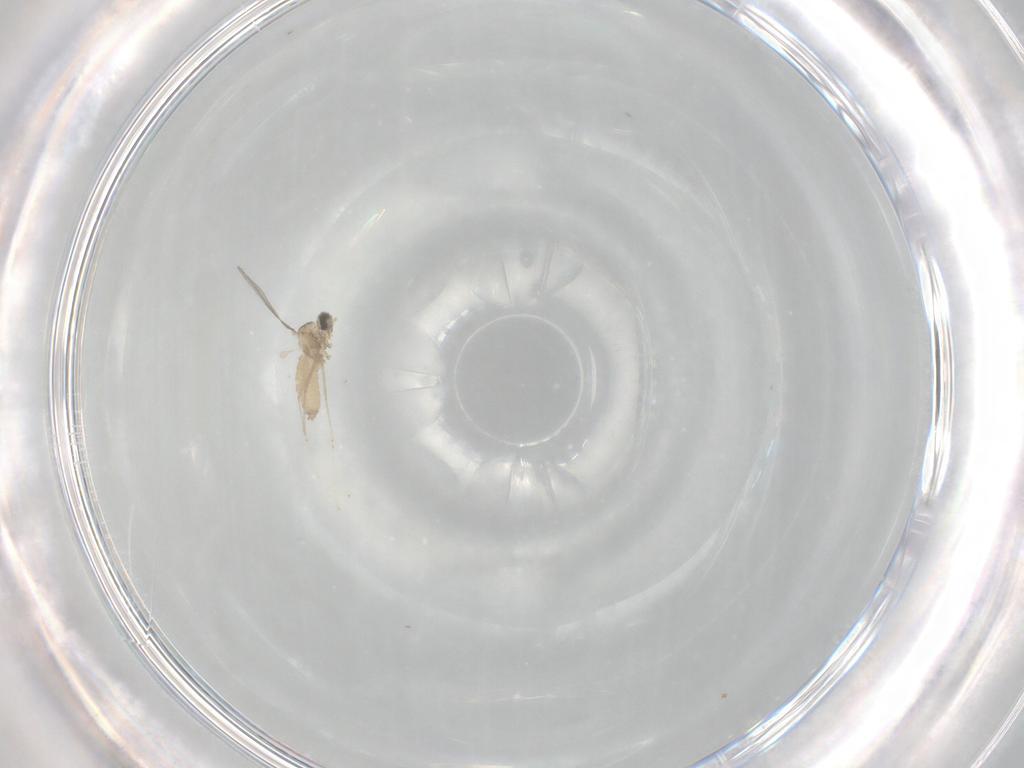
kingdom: Animalia
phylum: Arthropoda
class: Insecta
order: Diptera
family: Cecidomyiidae
